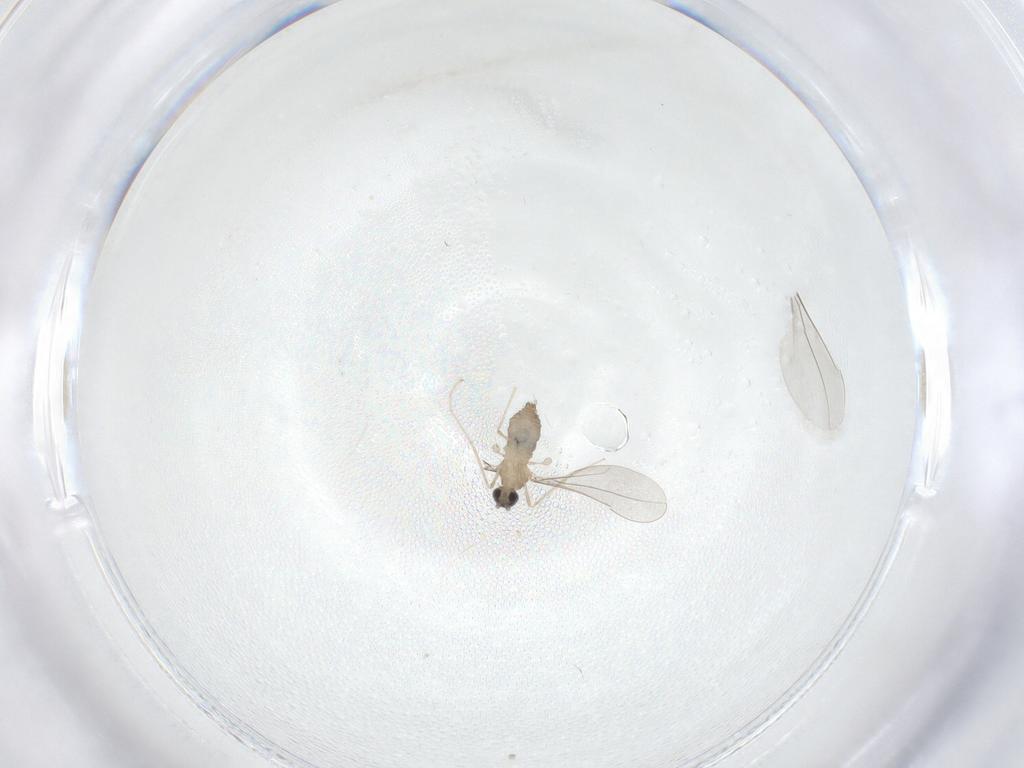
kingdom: Animalia
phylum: Arthropoda
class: Insecta
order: Diptera
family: Cecidomyiidae
